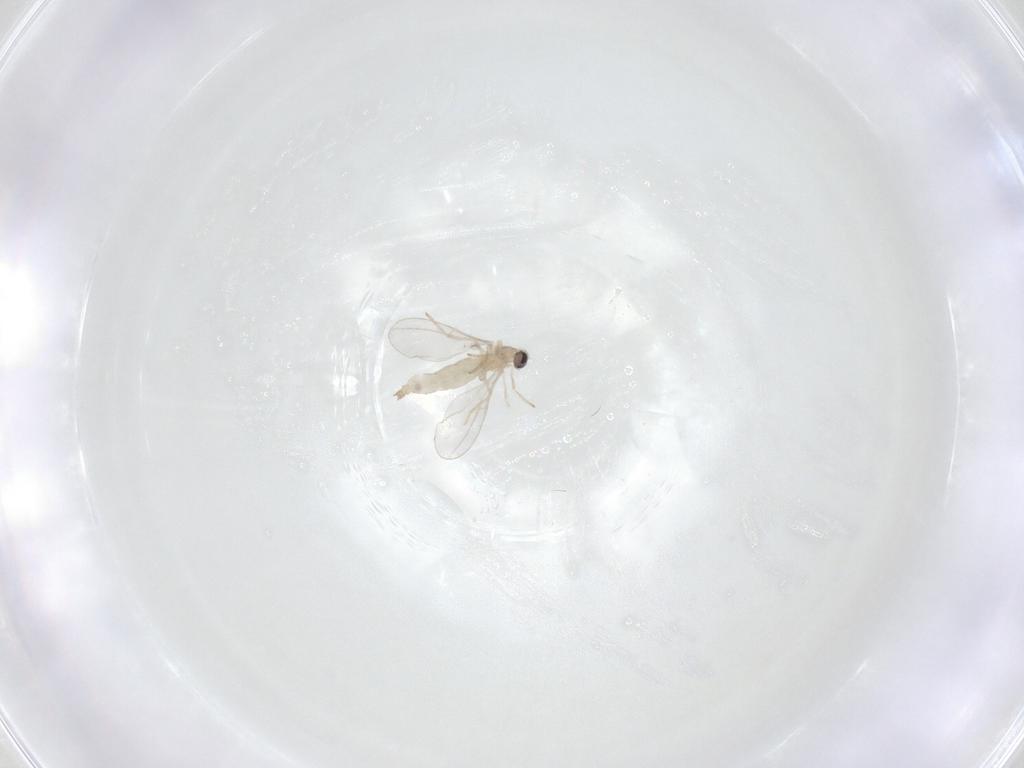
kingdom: Animalia
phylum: Arthropoda
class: Insecta
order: Diptera
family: Cecidomyiidae
